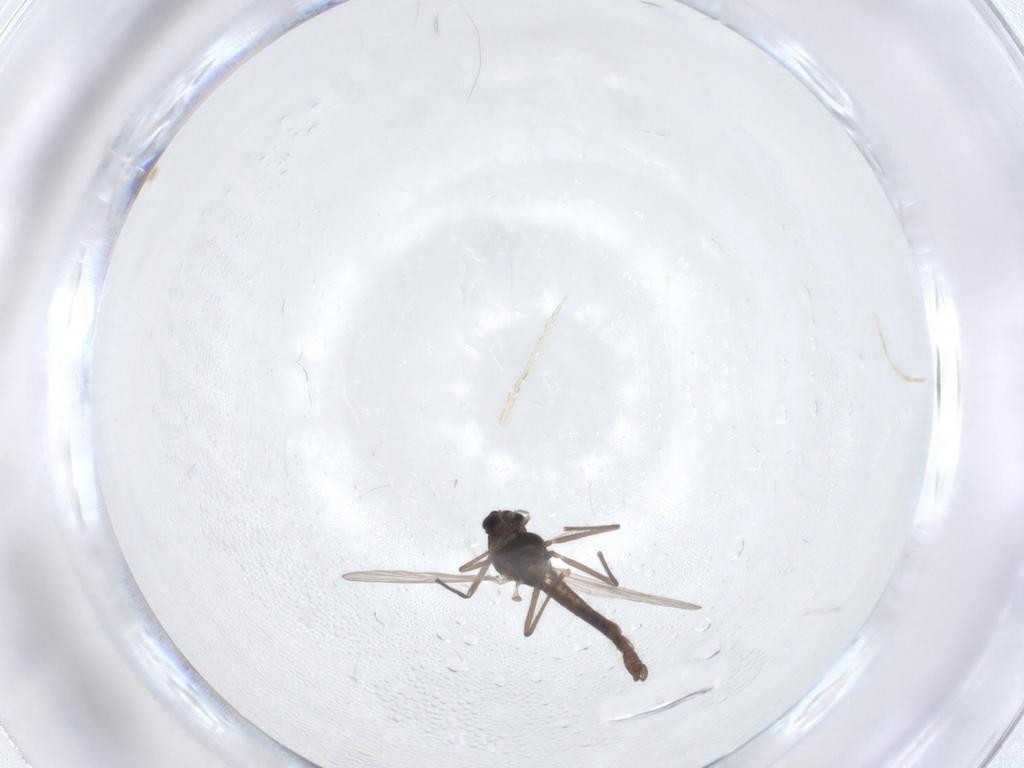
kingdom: Animalia
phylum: Arthropoda
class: Insecta
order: Diptera
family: Chironomidae
